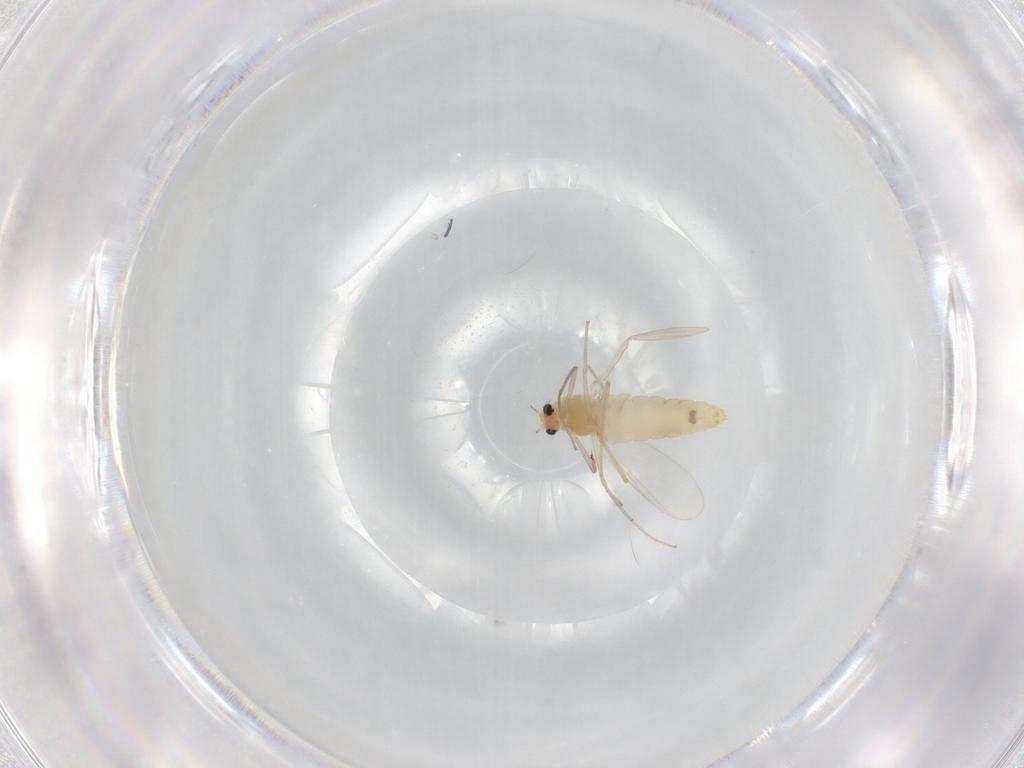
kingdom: Animalia
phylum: Arthropoda
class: Insecta
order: Diptera
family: Chironomidae
